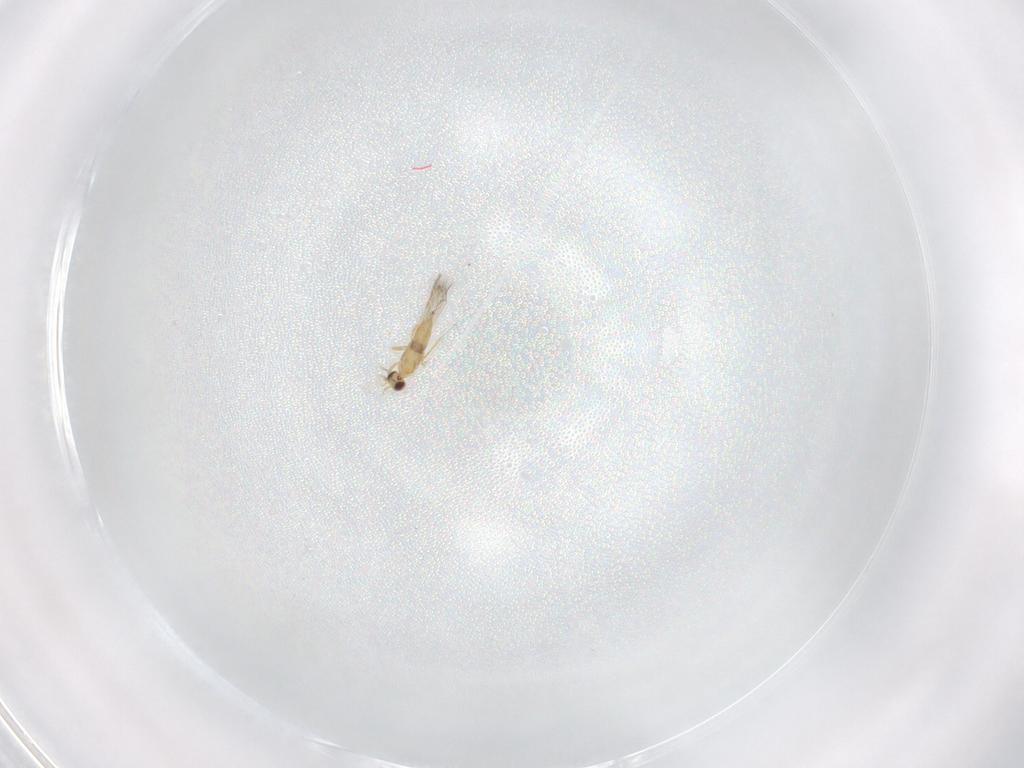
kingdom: Animalia
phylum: Arthropoda
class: Insecta
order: Hymenoptera
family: Mymaridae
